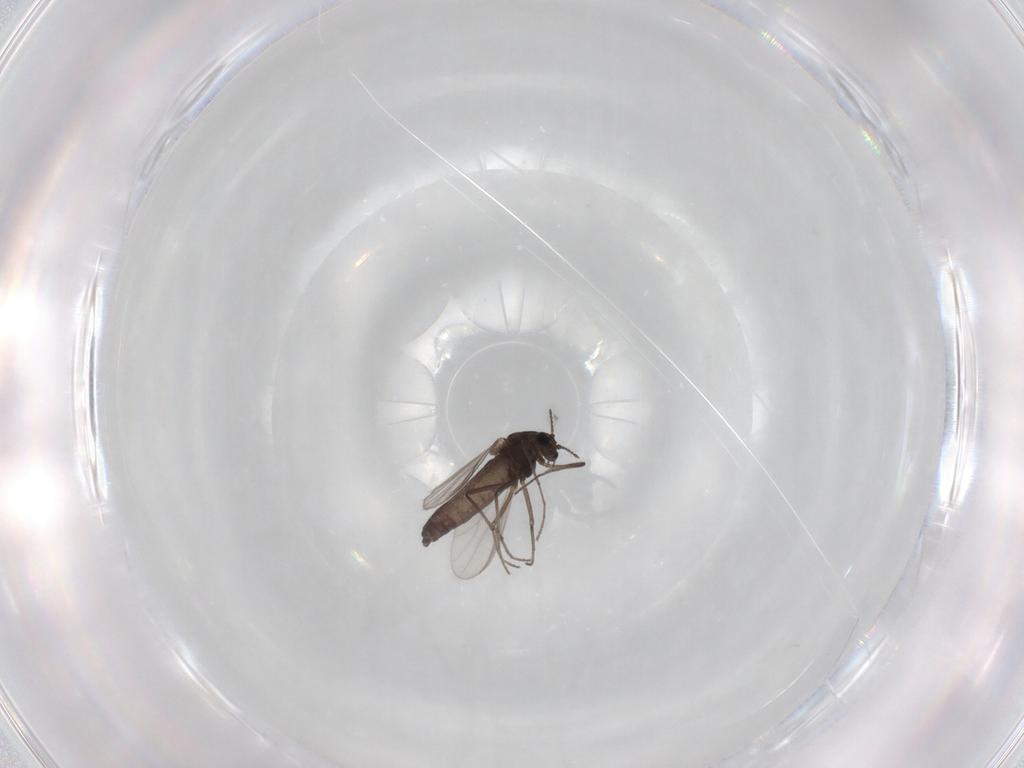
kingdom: Animalia
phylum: Arthropoda
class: Insecta
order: Diptera
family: Chironomidae
